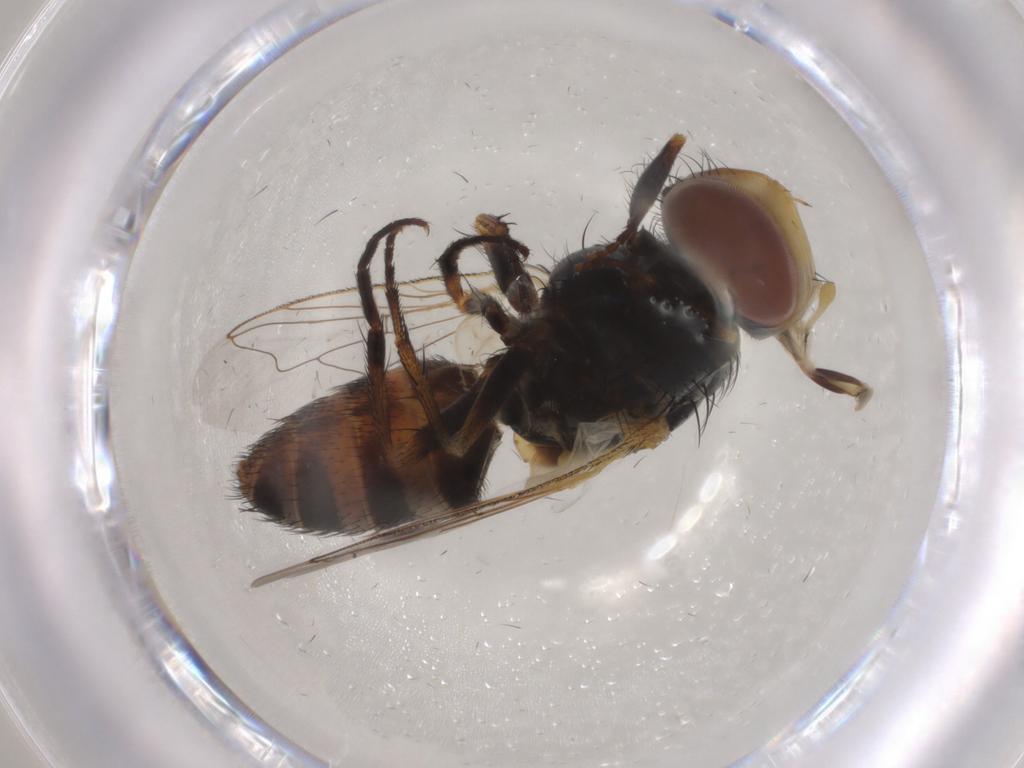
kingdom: Animalia
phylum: Arthropoda
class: Insecta
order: Diptera
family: Sarcophagidae
